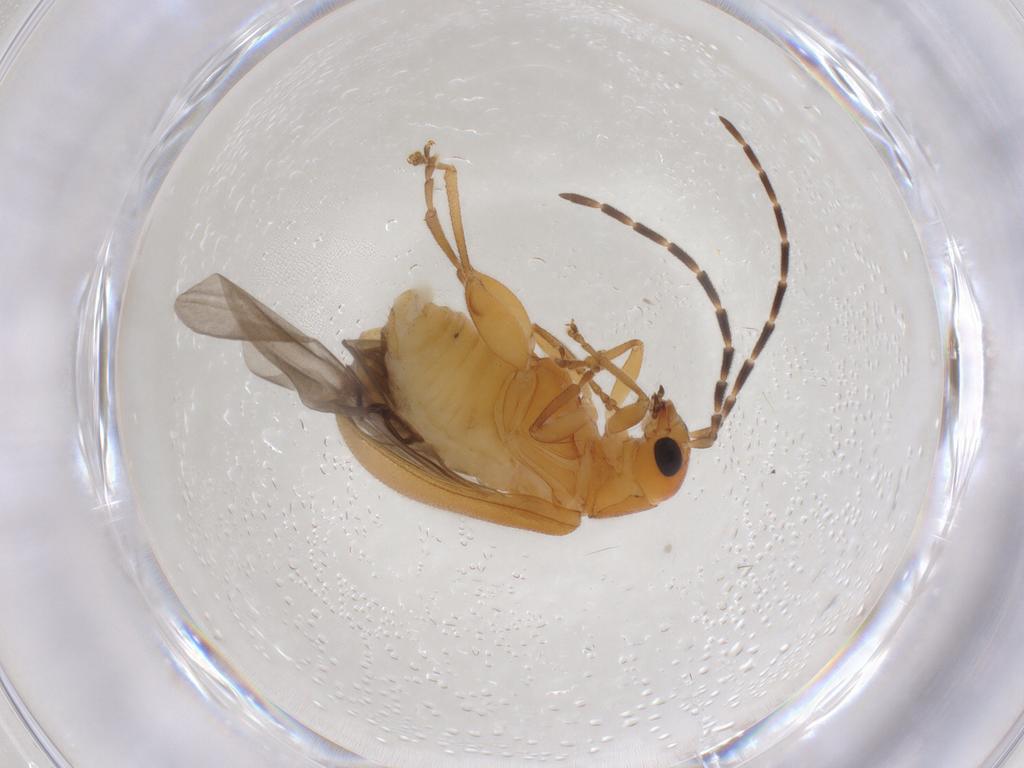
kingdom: Animalia
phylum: Arthropoda
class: Insecta
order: Coleoptera
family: Chrysomelidae
